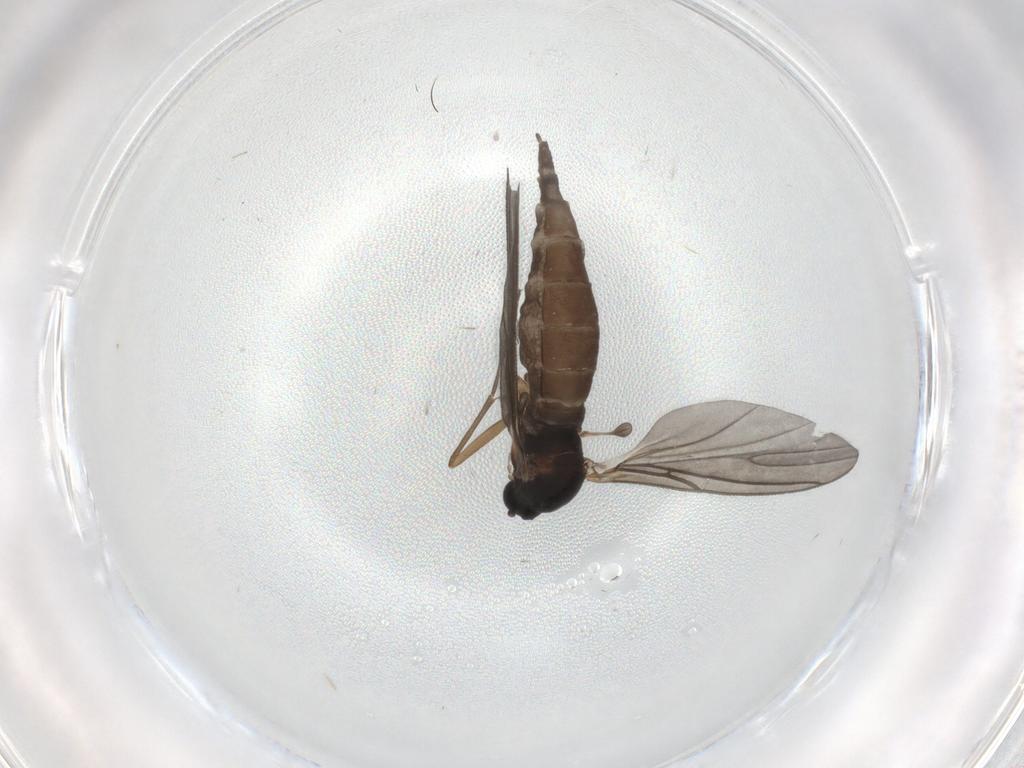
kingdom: Animalia
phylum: Arthropoda
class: Insecta
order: Diptera
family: Sciaridae
